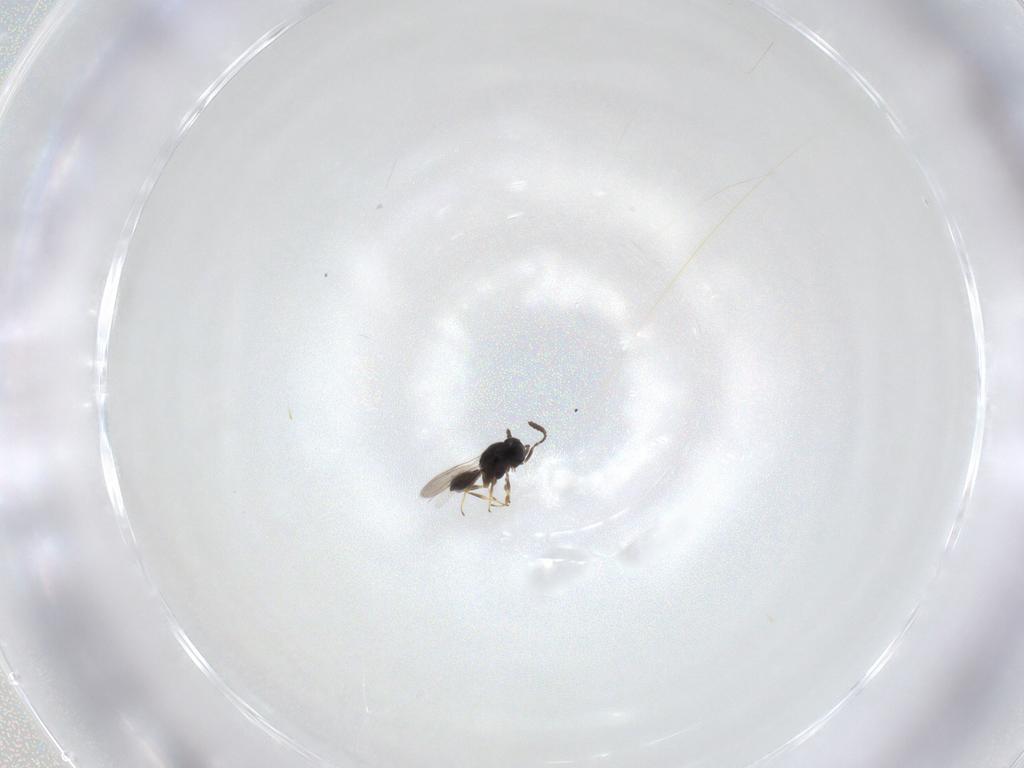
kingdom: Animalia
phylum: Arthropoda
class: Insecta
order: Hymenoptera
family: Scelionidae
